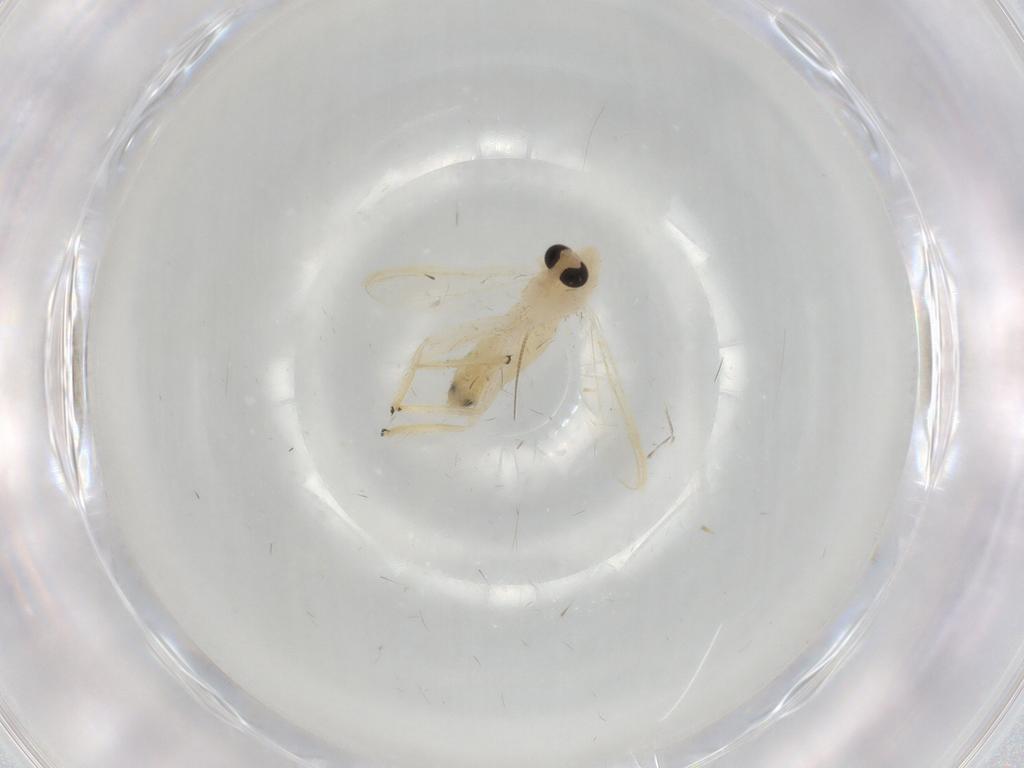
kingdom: Animalia
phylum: Arthropoda
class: Insecta
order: Diptera
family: Chironomidae
